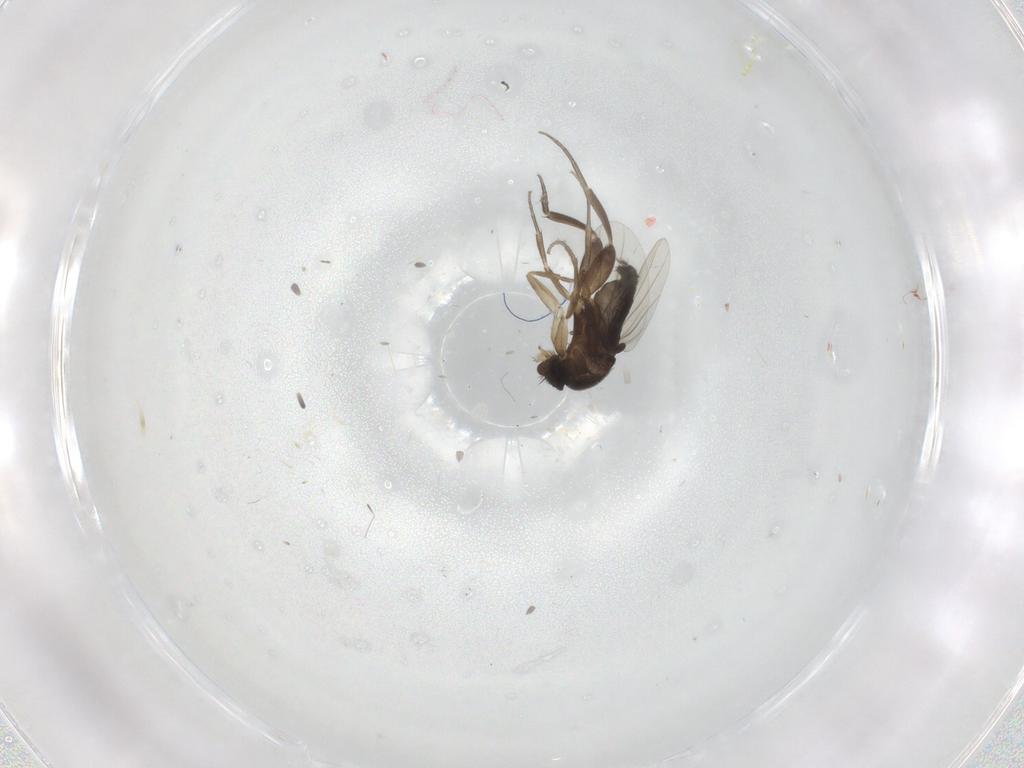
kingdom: Animalia
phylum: Arthropoda
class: Insecta
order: Diptera
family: Phoridae
